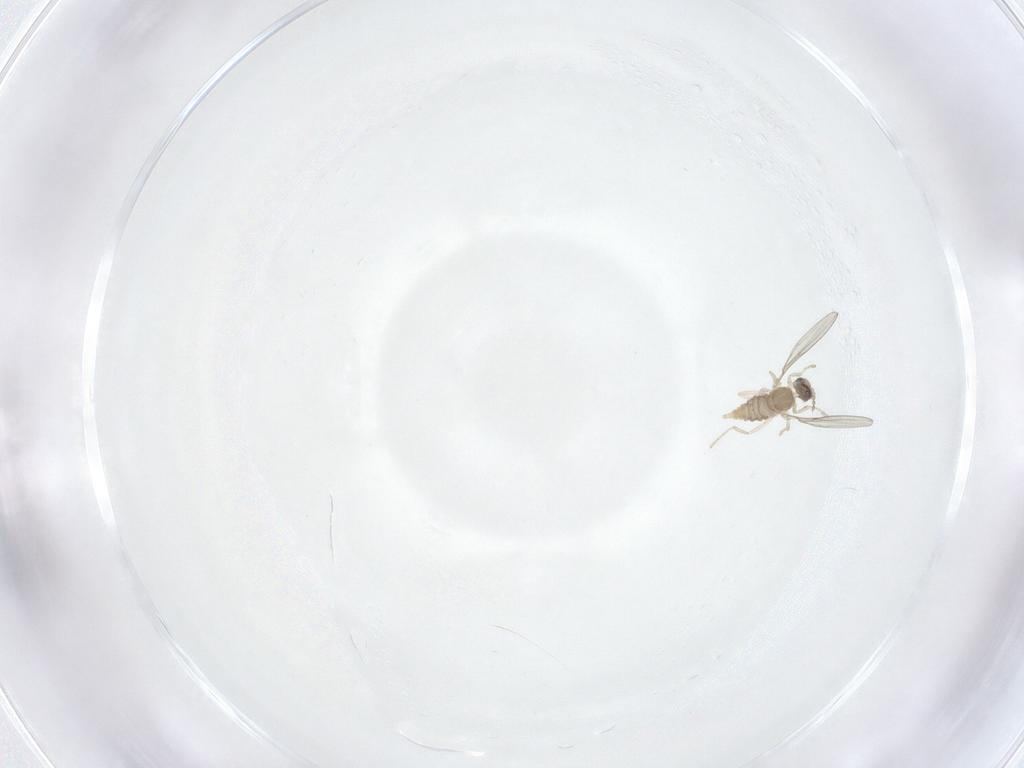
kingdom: Animalia
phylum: Arthropoda
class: Insecta
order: Diptera
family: Cecidomyiidae
